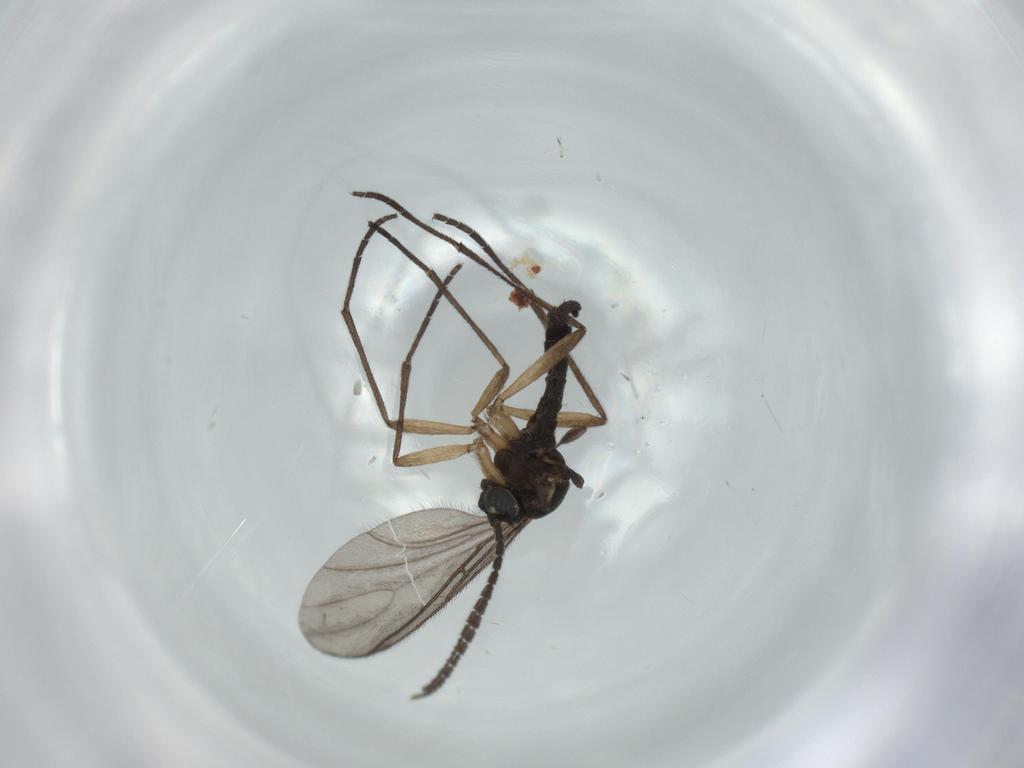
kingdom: Animalia
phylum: Arthropoda
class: Insecta
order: Diptera
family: Sciaridae
